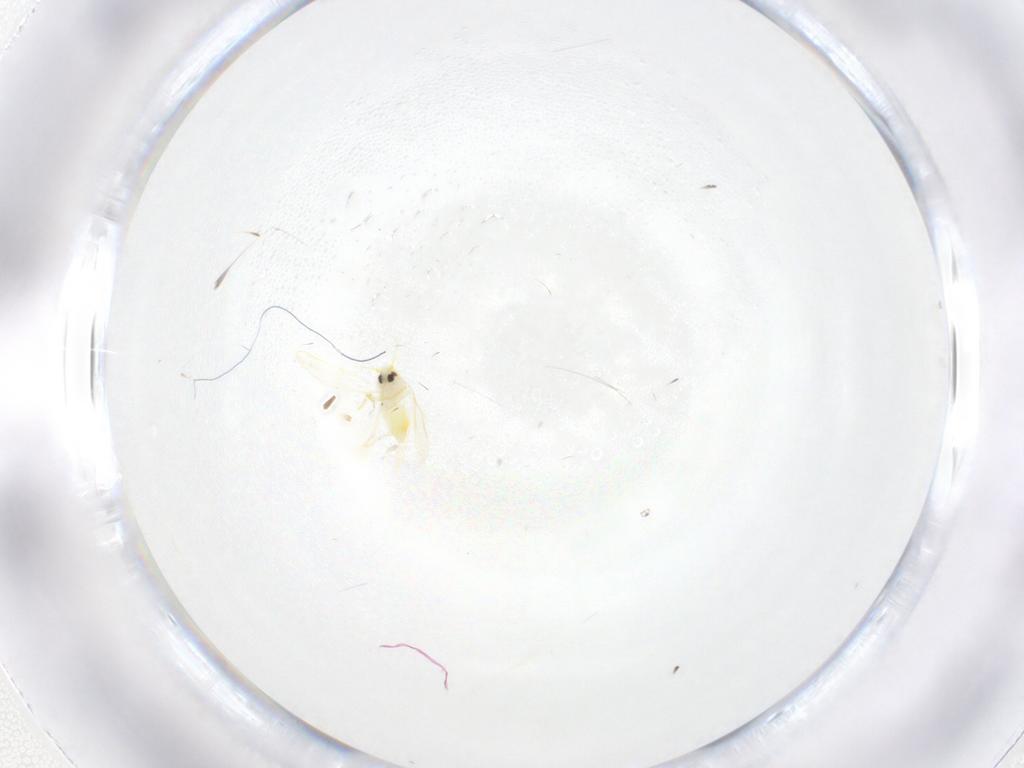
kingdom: Animalia
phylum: Arthropoda
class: Insecta
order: Hemiptera
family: Aleyrodidae
